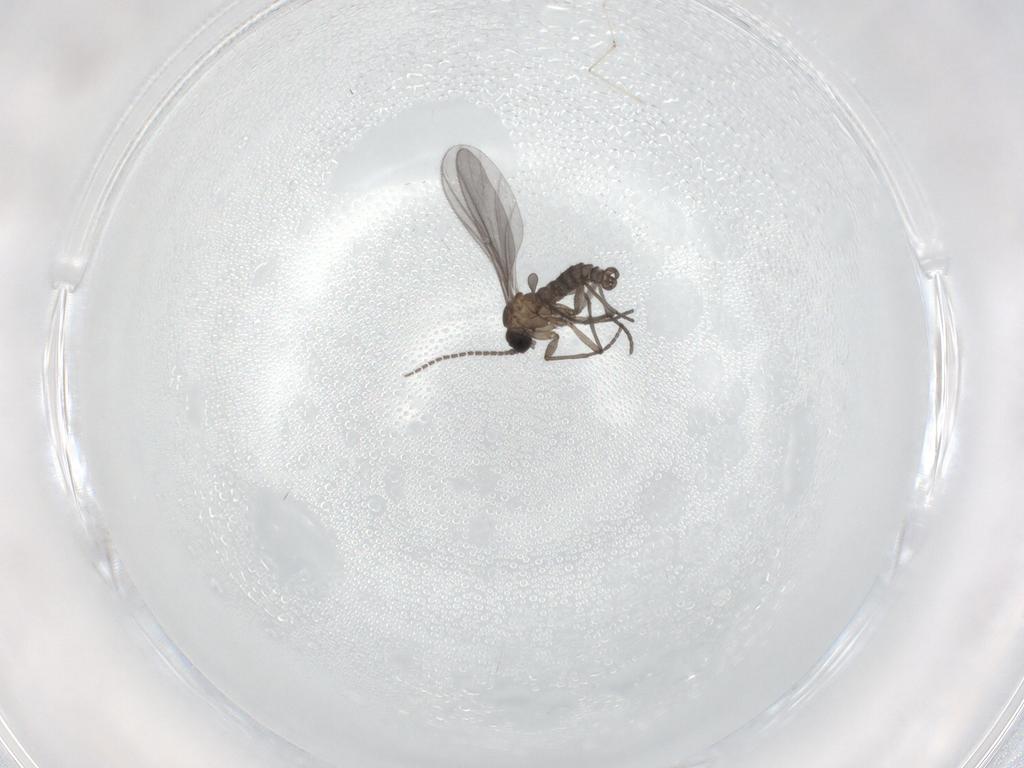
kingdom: Animalia
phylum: Arthropoda
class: Insecta
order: Diptera
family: Sciaridae
